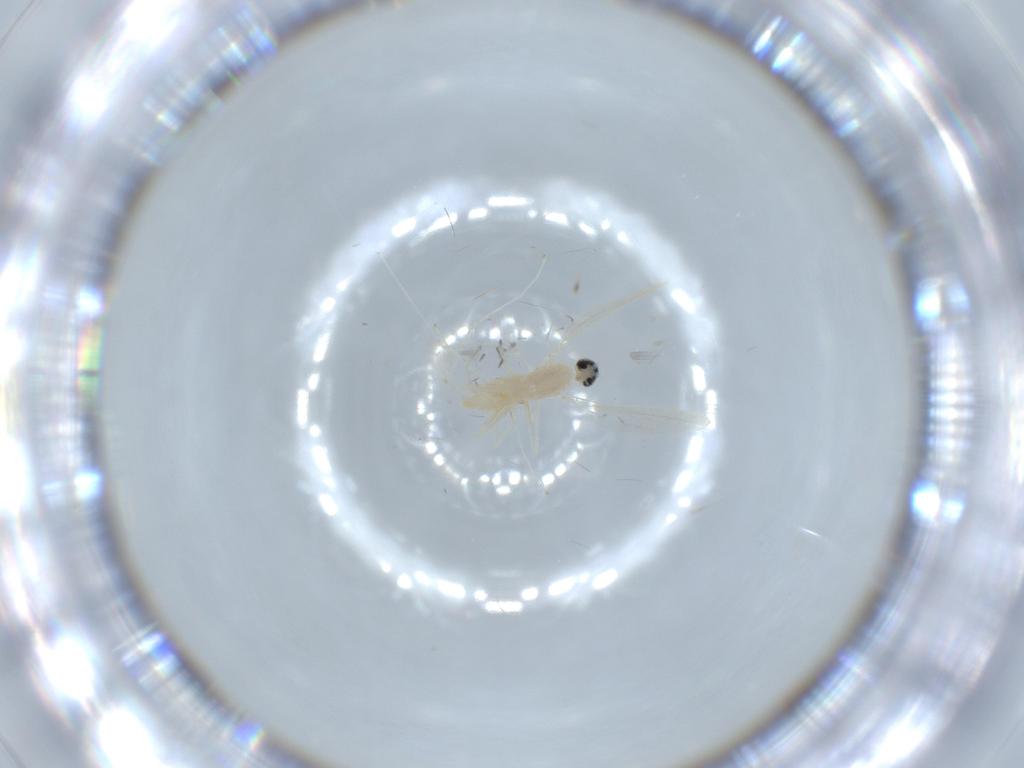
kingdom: Animalia
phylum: Arthropoda
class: Insecta
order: Diptera
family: Cecidomyiidae
